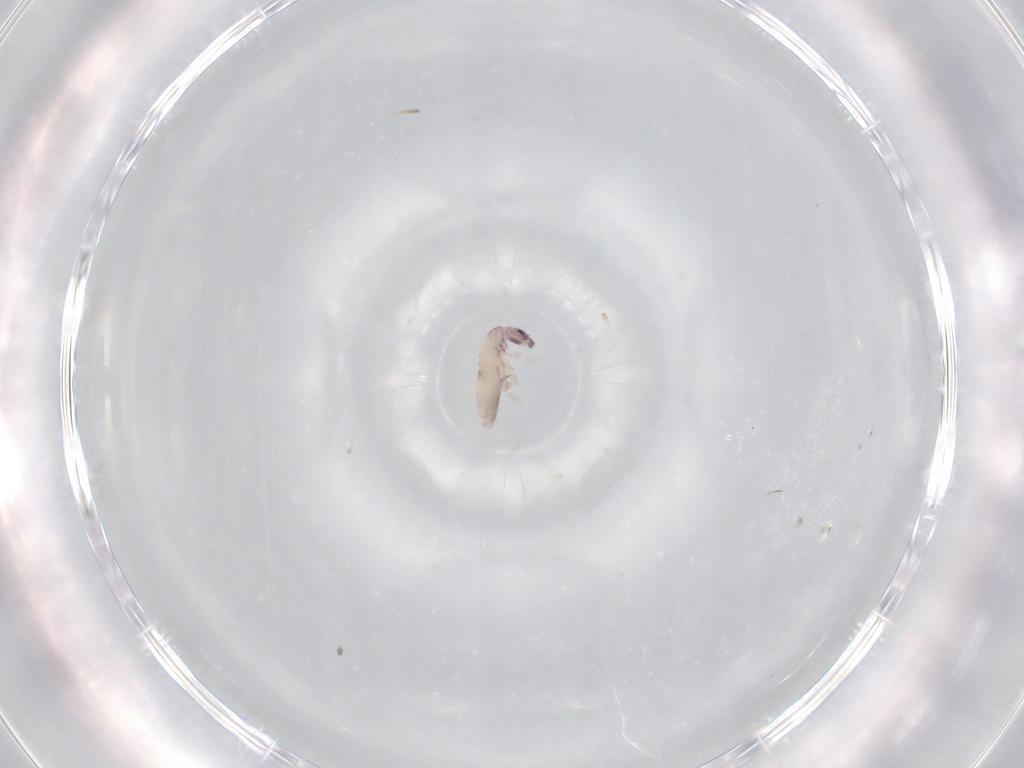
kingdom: Animalia
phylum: Arthropoda
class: Collembola
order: Entomobryomorpha
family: Entomobryidae
